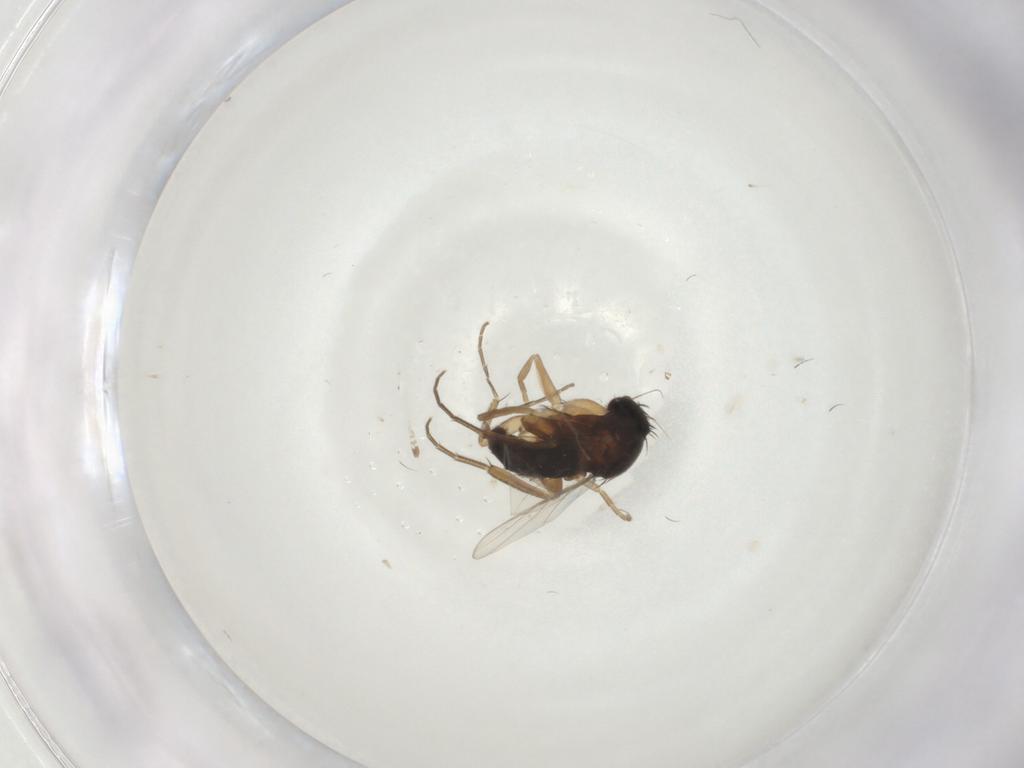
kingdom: Animalia
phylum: Arthropoda
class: Insecta
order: Diptera
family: Phoridae
